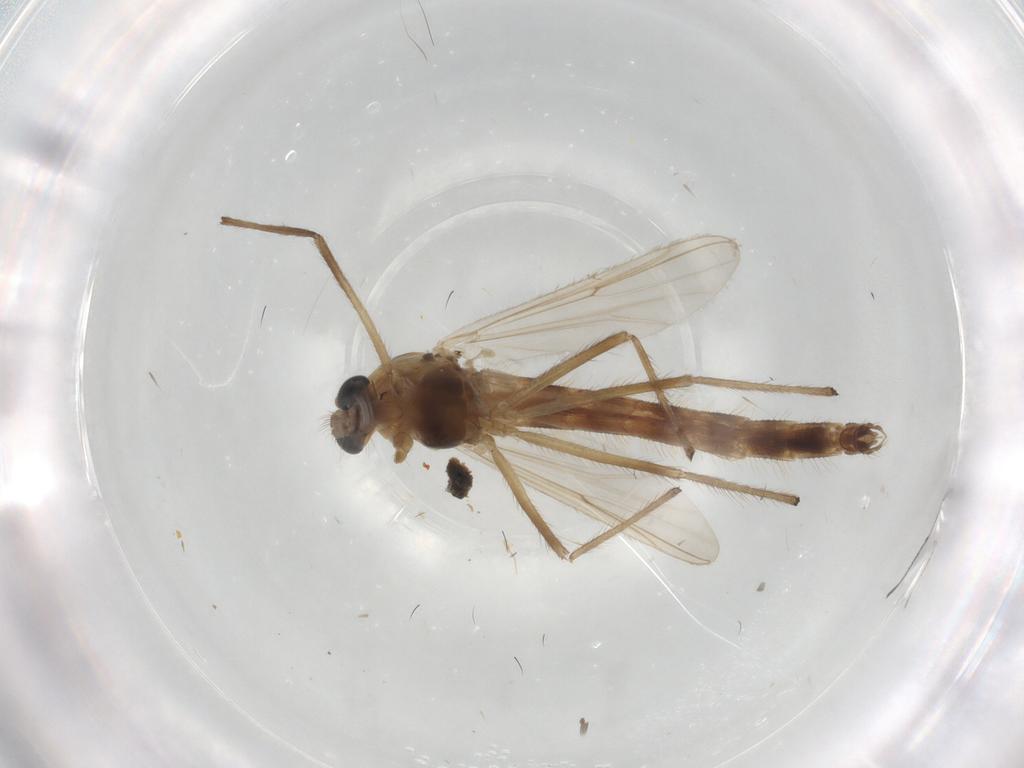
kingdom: Animalia
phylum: Arthropoda
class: Insecta
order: Diptera
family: Chironomidae
